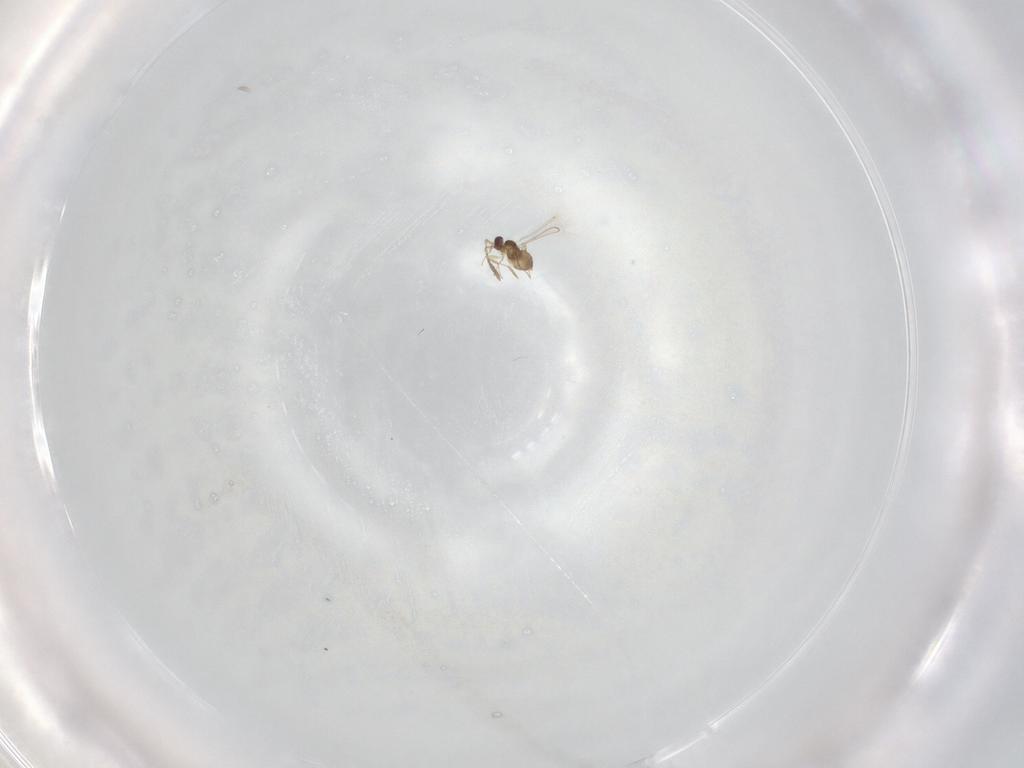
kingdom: Animalia
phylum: Arthropoda
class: Insecta
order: Hymenoptera
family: Mymaridae
